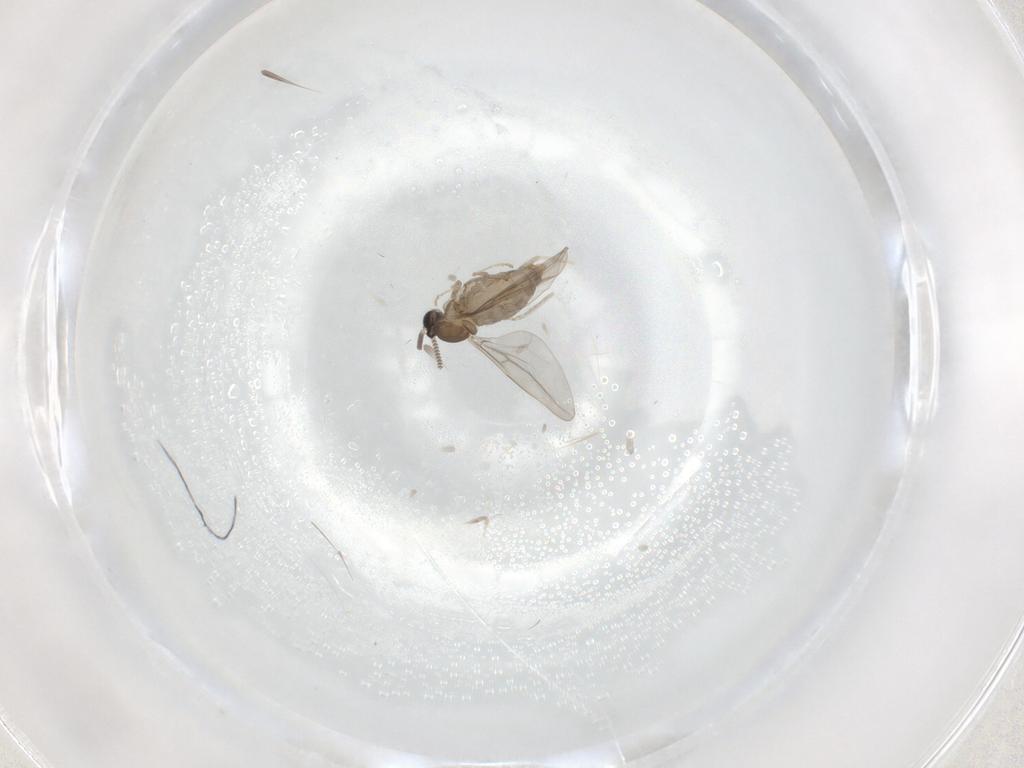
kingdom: Animalia
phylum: Arthropoda
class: Insecta
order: Diptera
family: Cecidomyiidae
